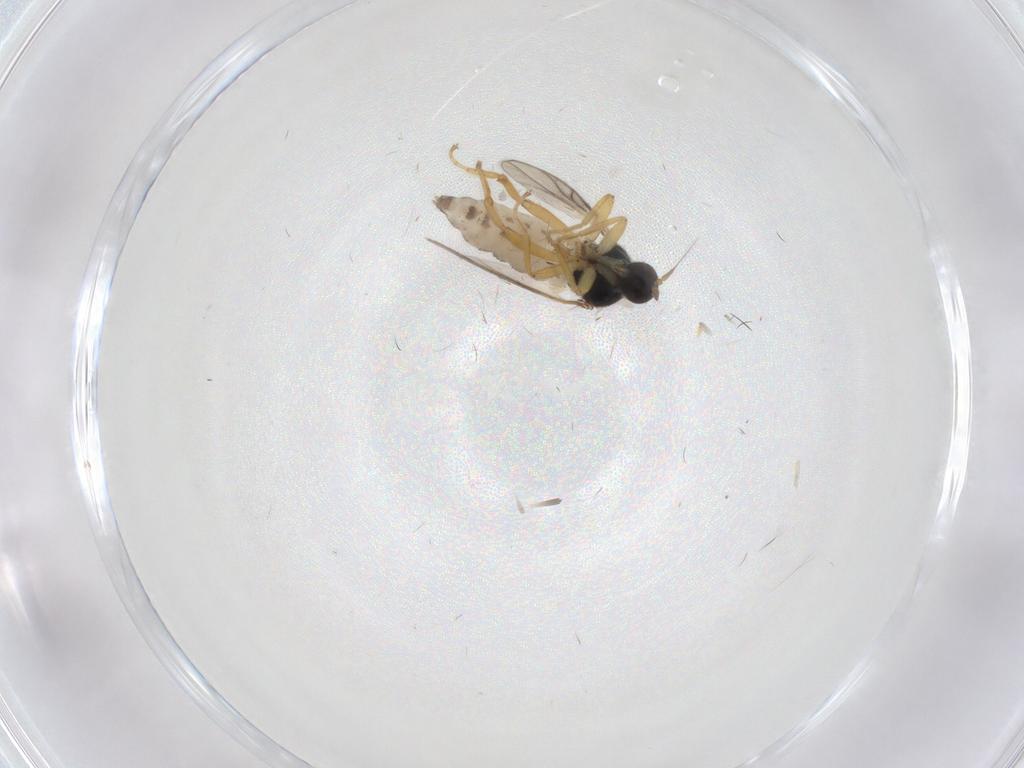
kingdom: Animalia
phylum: Arthropoda
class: Insecta
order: Diptera
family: Hybotidae
